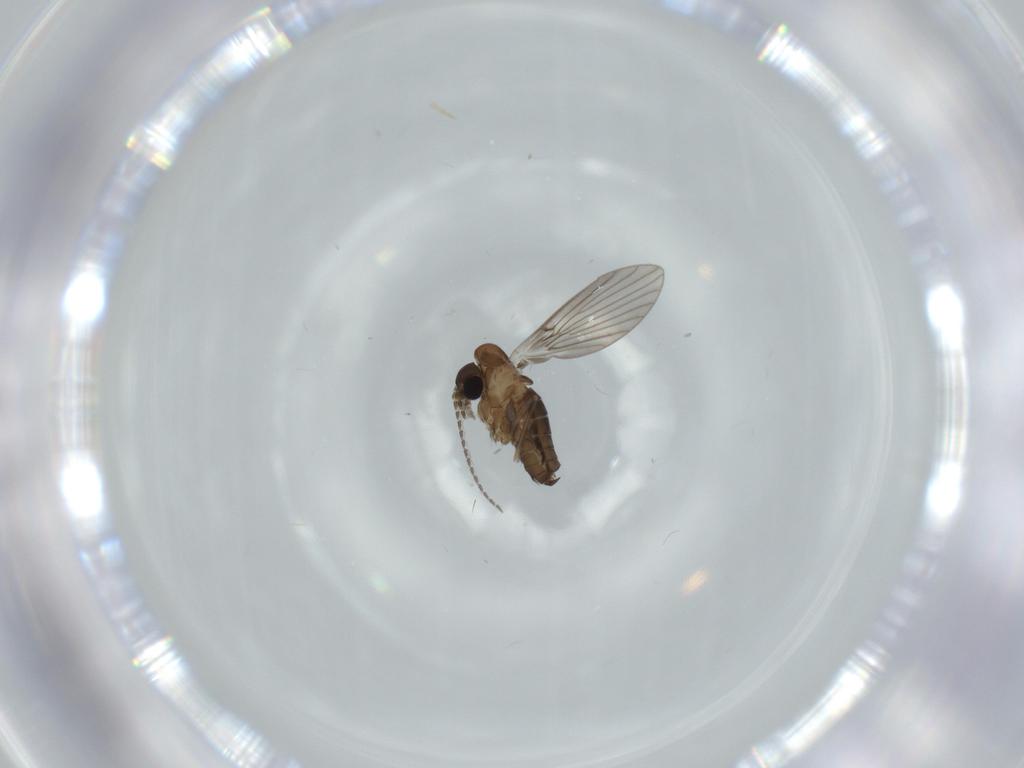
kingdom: Animalia
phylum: Arthropoda
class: Insecta
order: Diptera
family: Psychodidae
